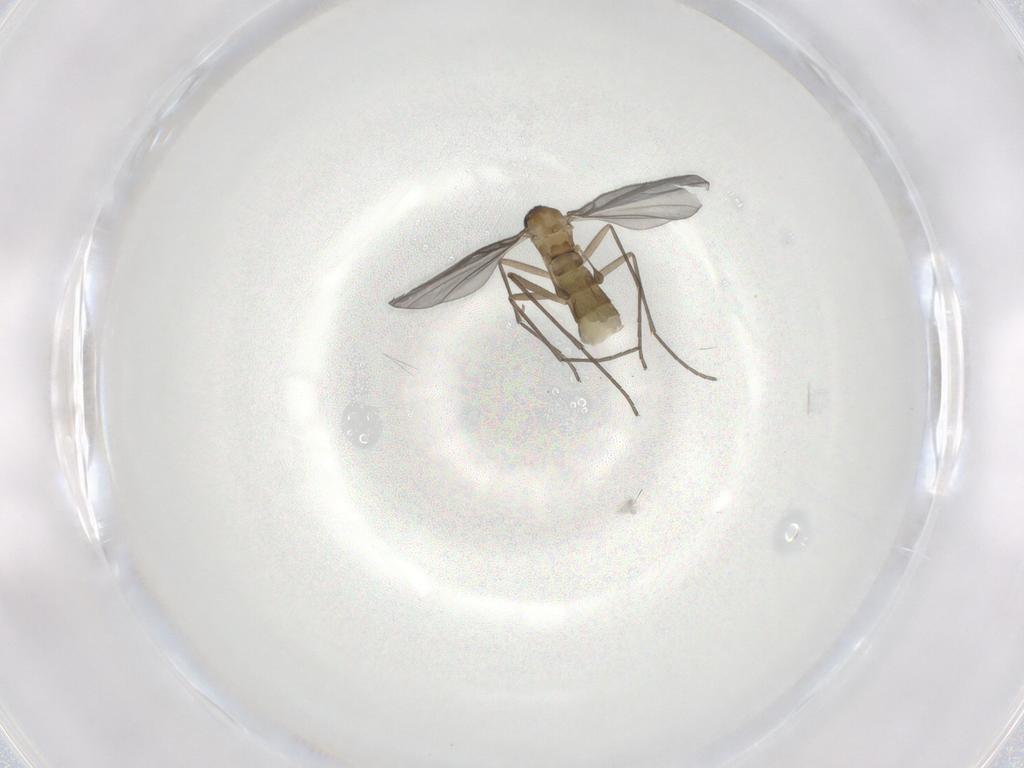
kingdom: Animalia
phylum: Arthropoda
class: Insecta
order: Diptera
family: Sciaridae
